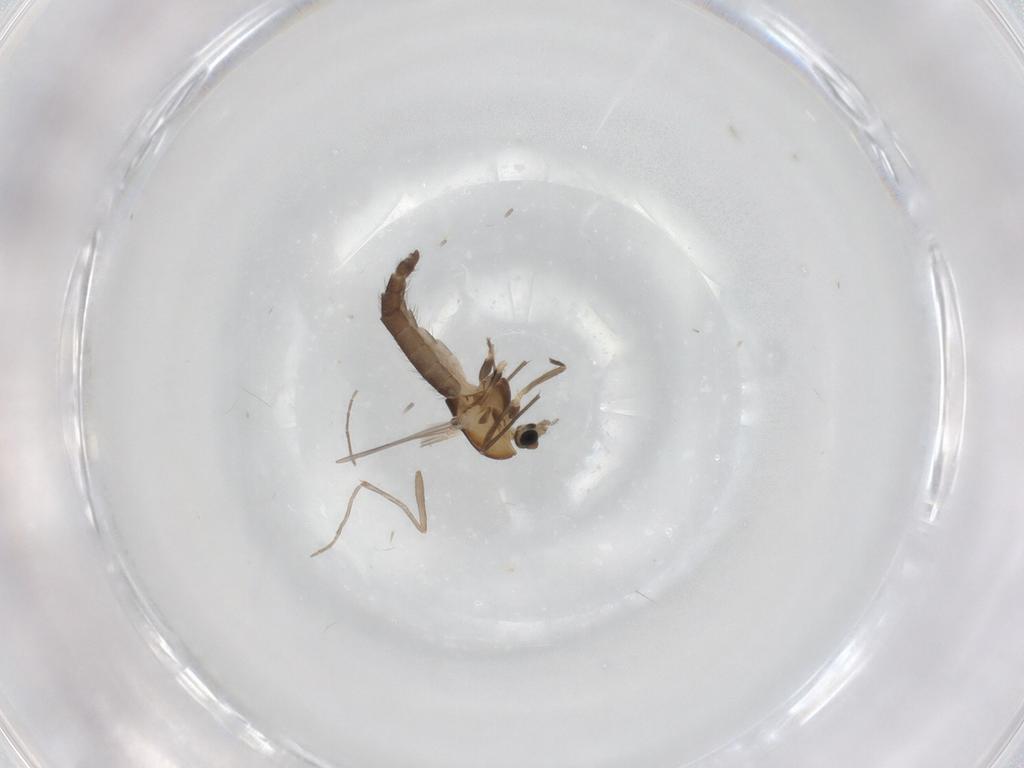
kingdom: Animalia
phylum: Arthropoda
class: Insecta
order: Diptera
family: Chironomidae
